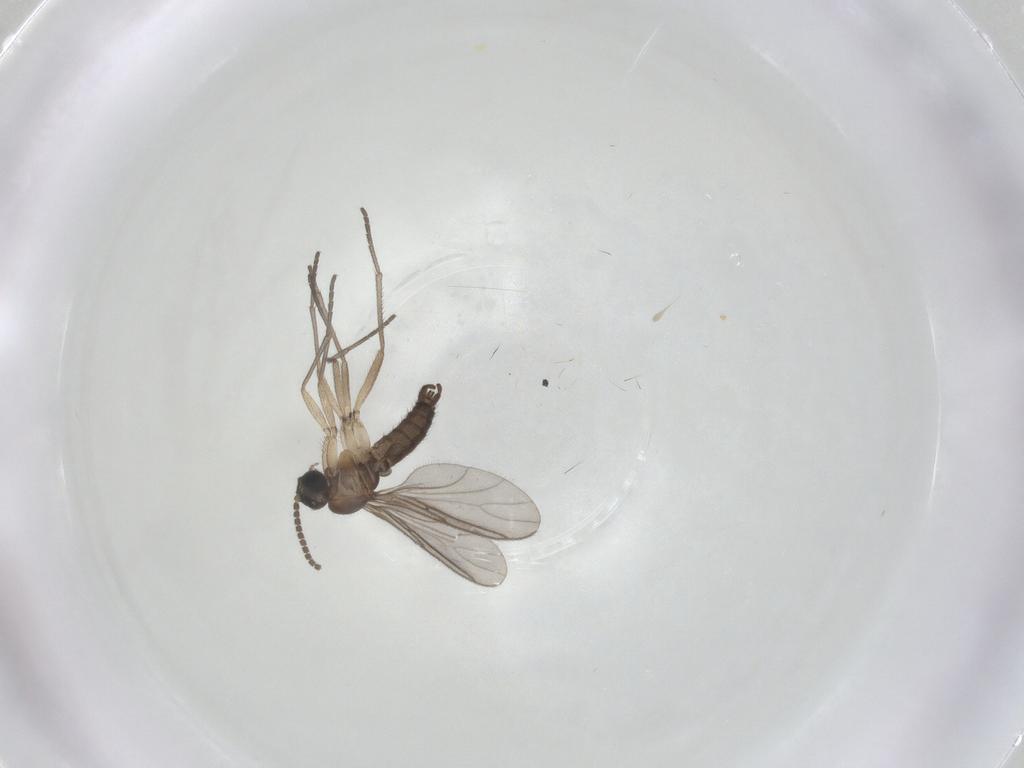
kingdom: Animalia
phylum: Arthropoda
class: Insecta
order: Diptera
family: Sciaridae
